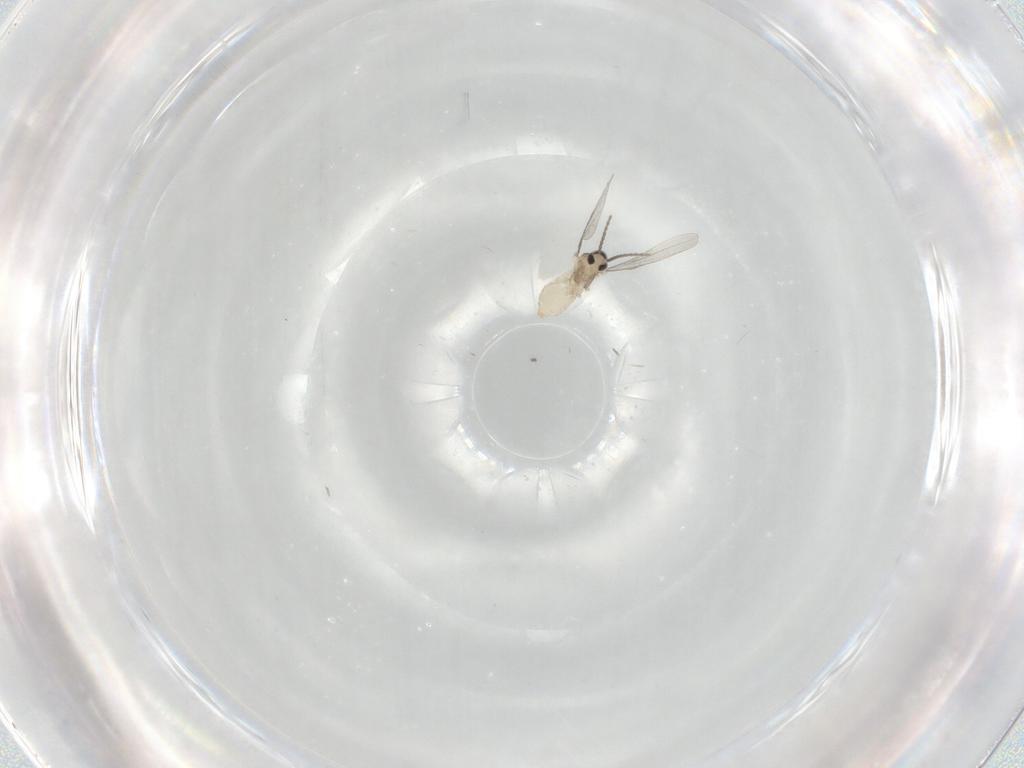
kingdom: Animalia
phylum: Arthropoda
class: Insecta
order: Diptera
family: Cecidomyiidae
